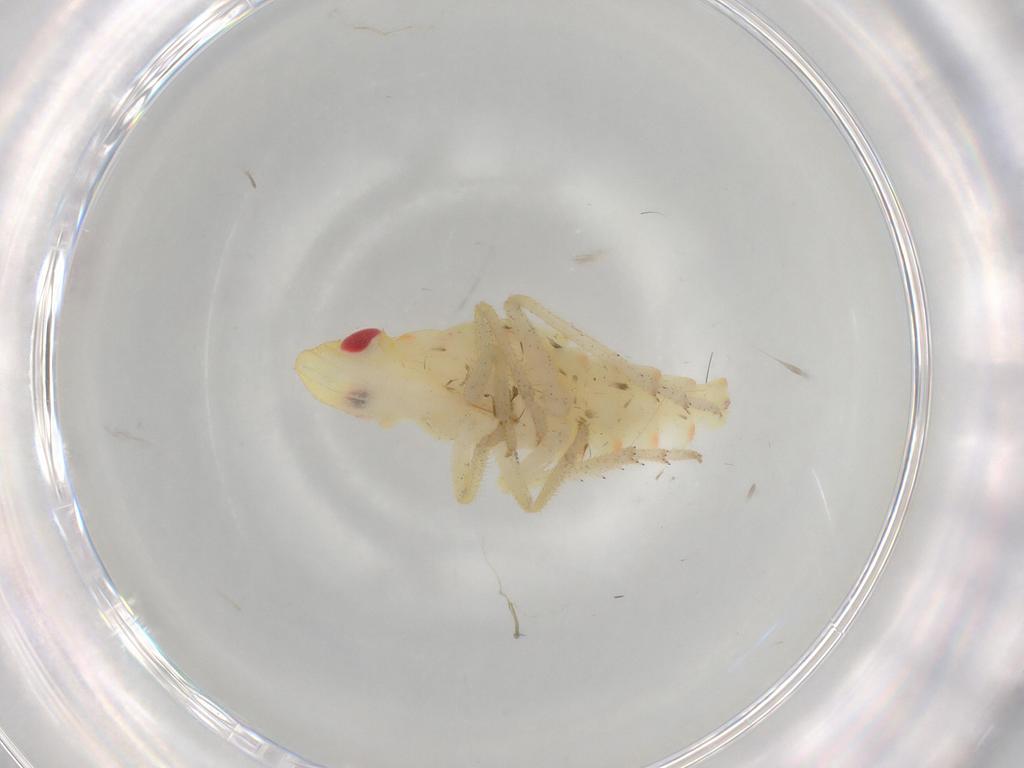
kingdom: Animalia
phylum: Arthropoda
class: Insecta
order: Hemiptera
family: Tropiduchidae
